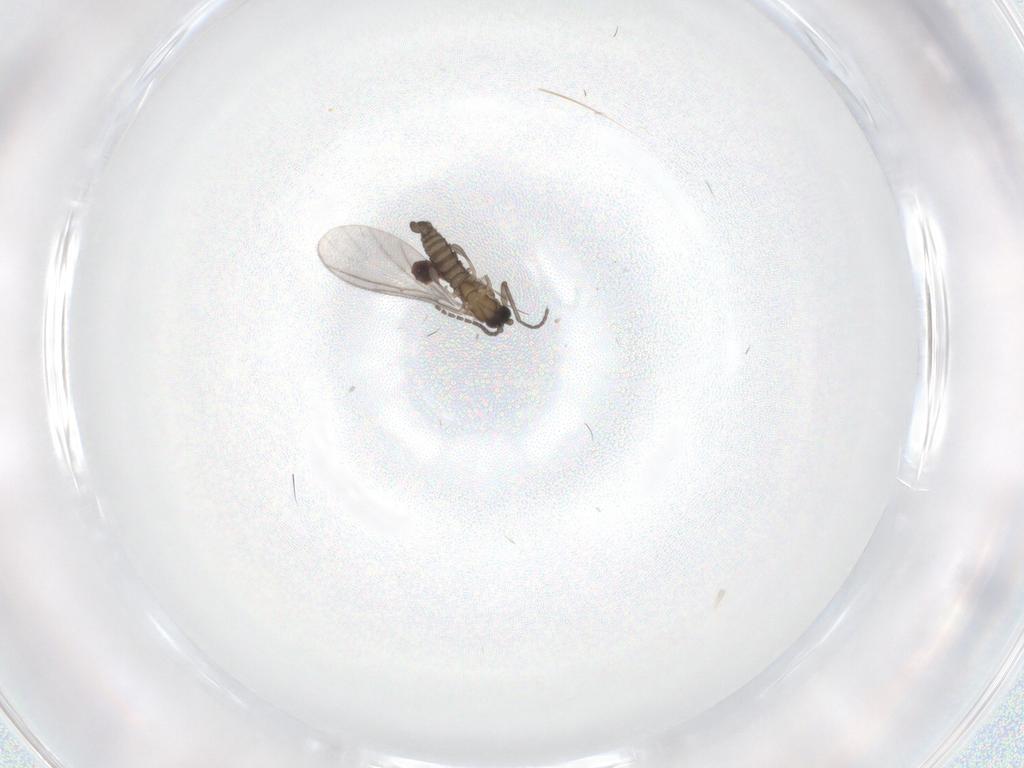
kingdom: Animalia
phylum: Arthropoda
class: Insecta
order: Diptera
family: Sciaridae
